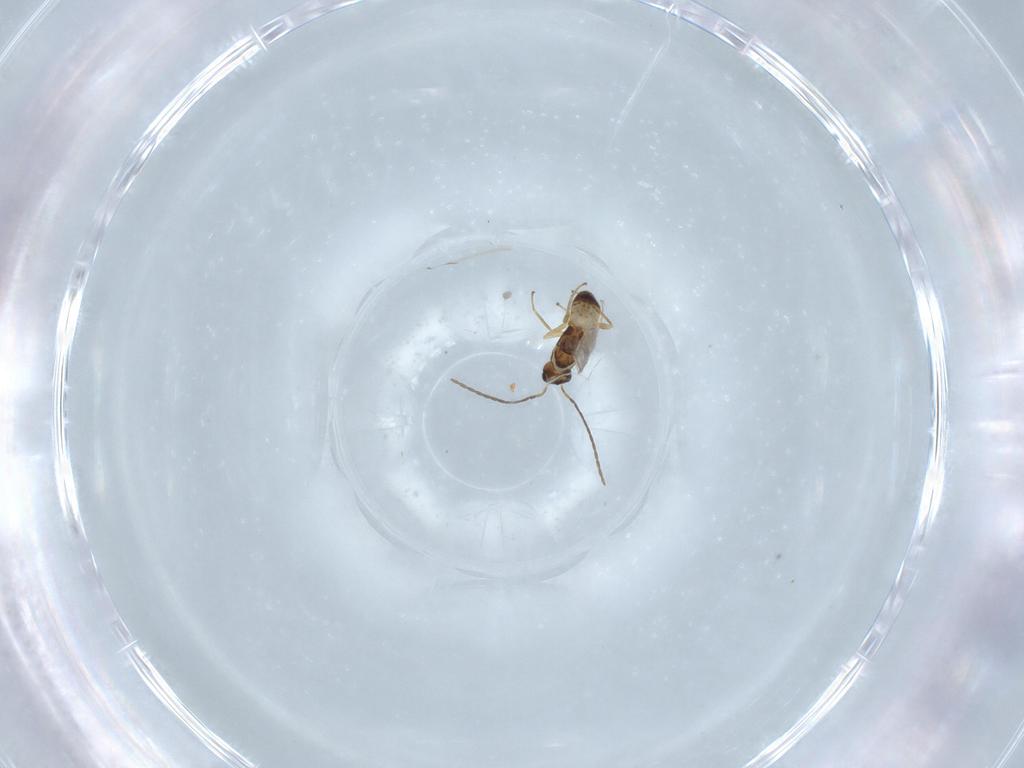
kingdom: Animalia
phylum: Arthropoda
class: Insecta
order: Hymenoptera
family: Mymaridae
